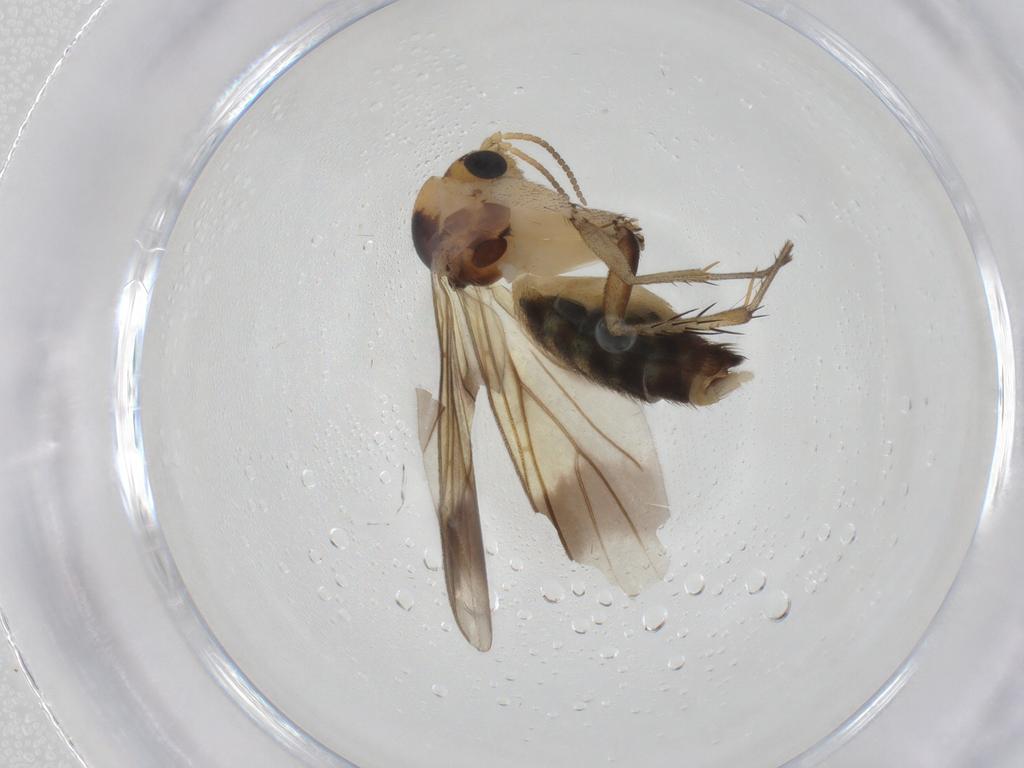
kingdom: Animalia
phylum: Arthropoda
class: Insecta
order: Diptera
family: Mycetophilidae
